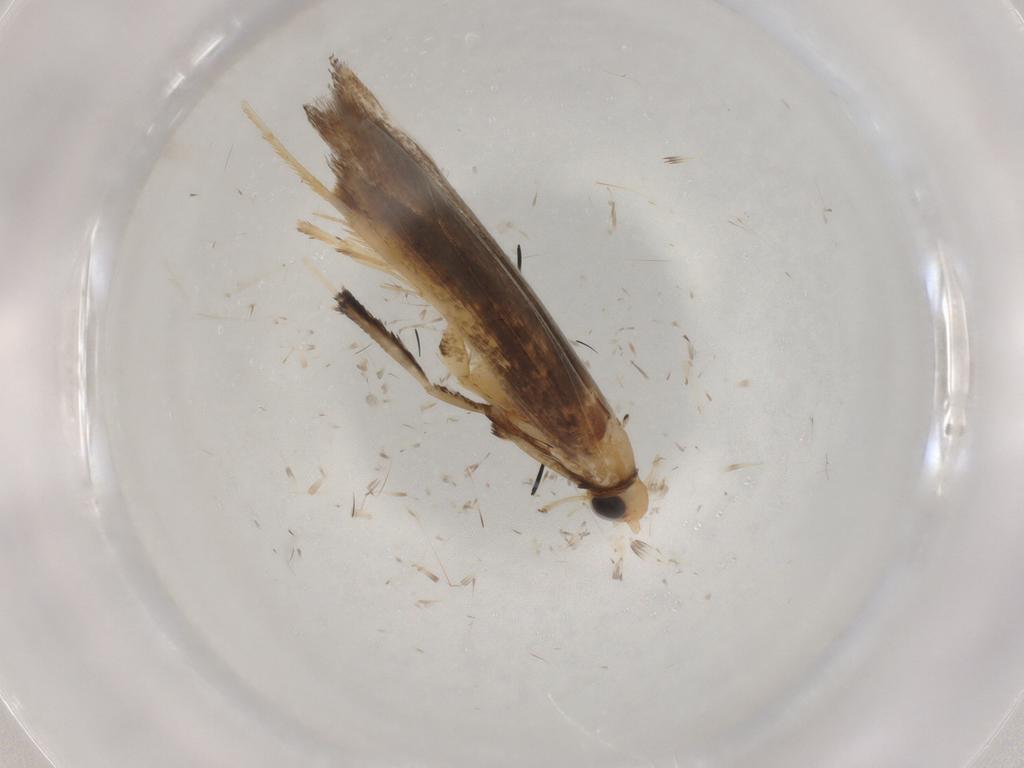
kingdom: Animalia
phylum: Arthropoda
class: Insecta
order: Lepidoptera
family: Gracillariidae
